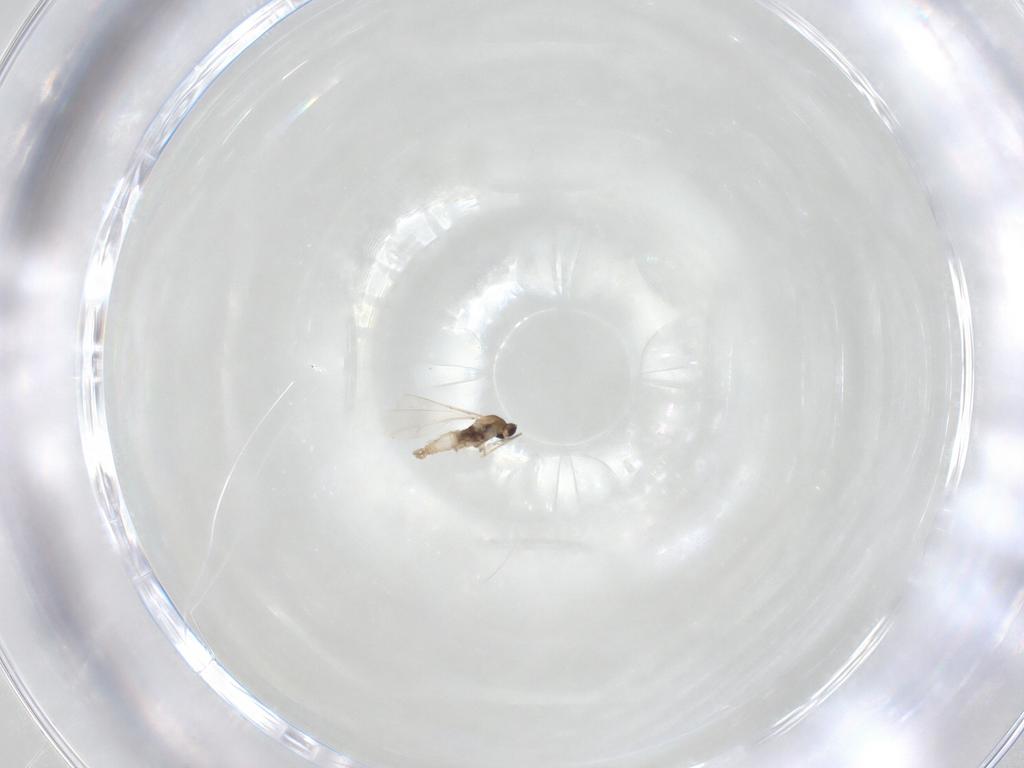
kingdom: Animalia
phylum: Arthropoda
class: Insecta
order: Diptera
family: Cecidomyiidae
